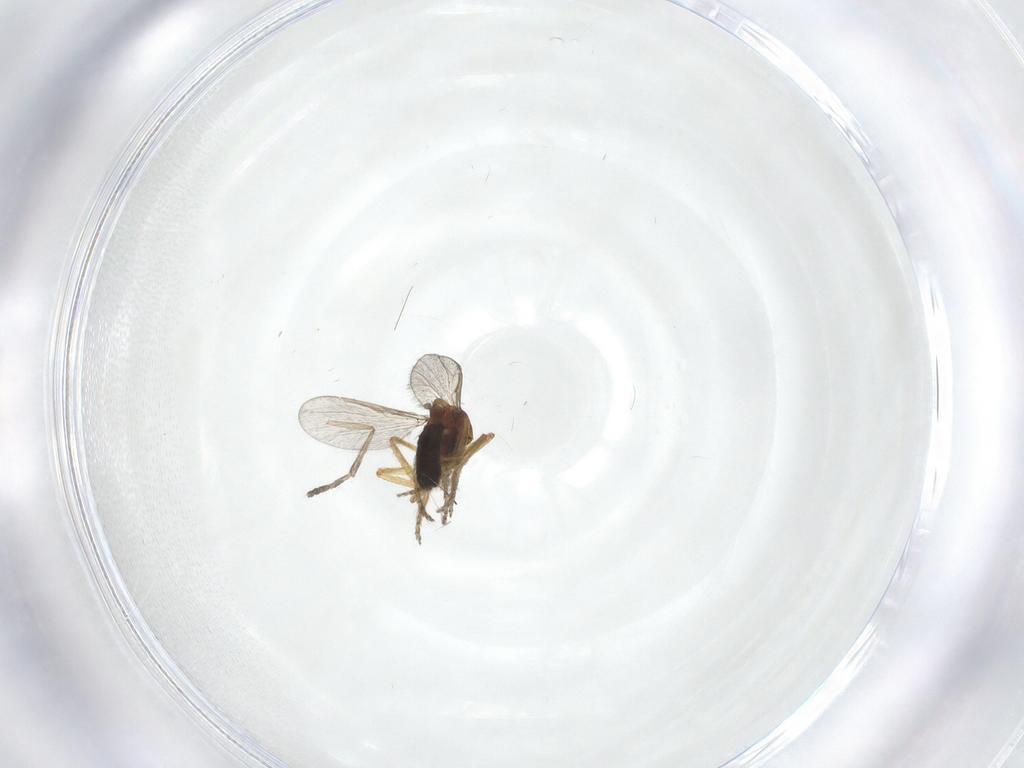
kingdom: Animalia
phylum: Arthropoda
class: Insecta
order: Diptera
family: Ceratopogonidae
